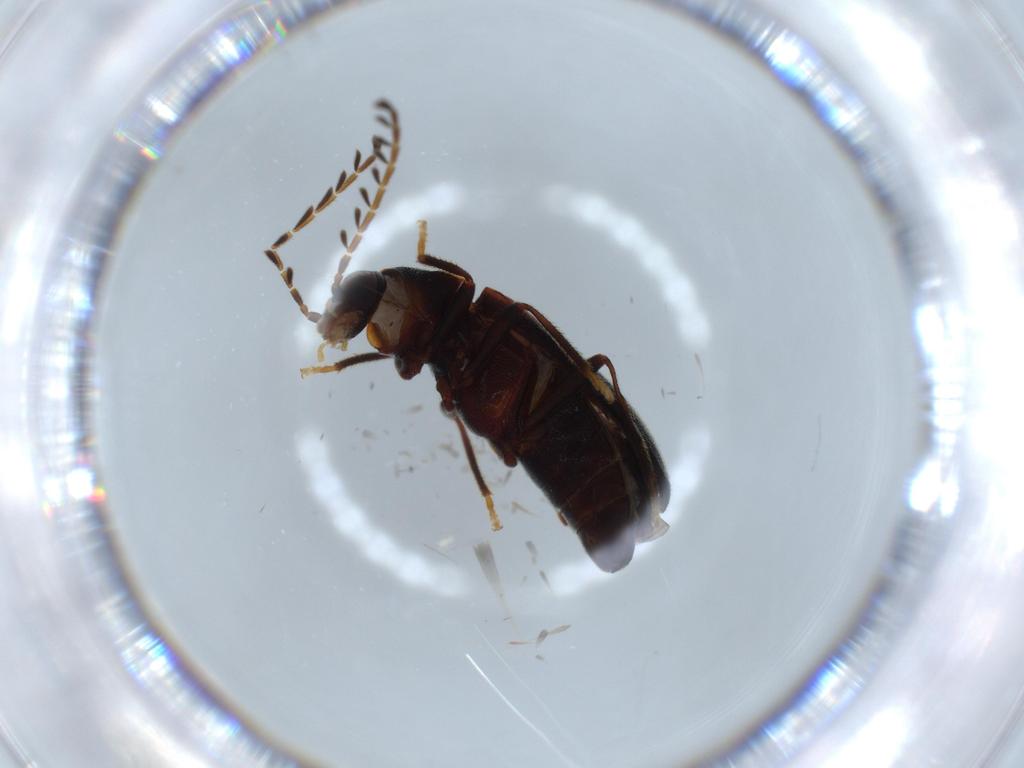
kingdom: Animalia
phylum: Arthropoda
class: Insecta
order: Coleoptera
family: Ptilodactylidae
